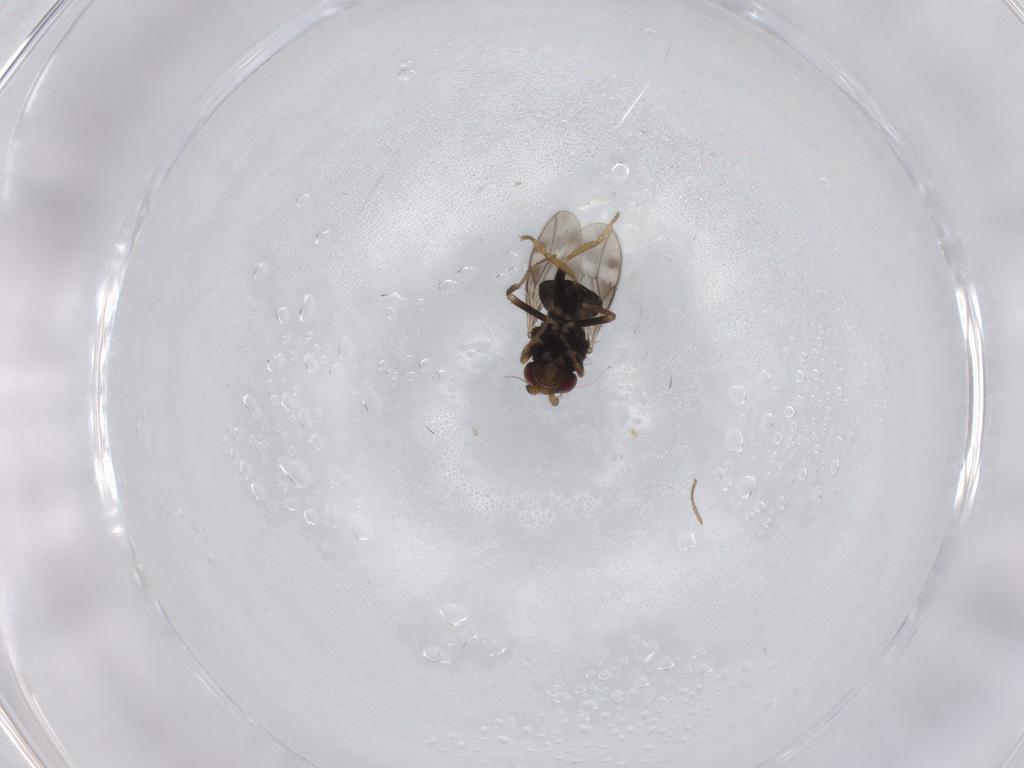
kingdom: Animalia
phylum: Arthropoda
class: Insecta
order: Diptera
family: Sphaeroceridae
